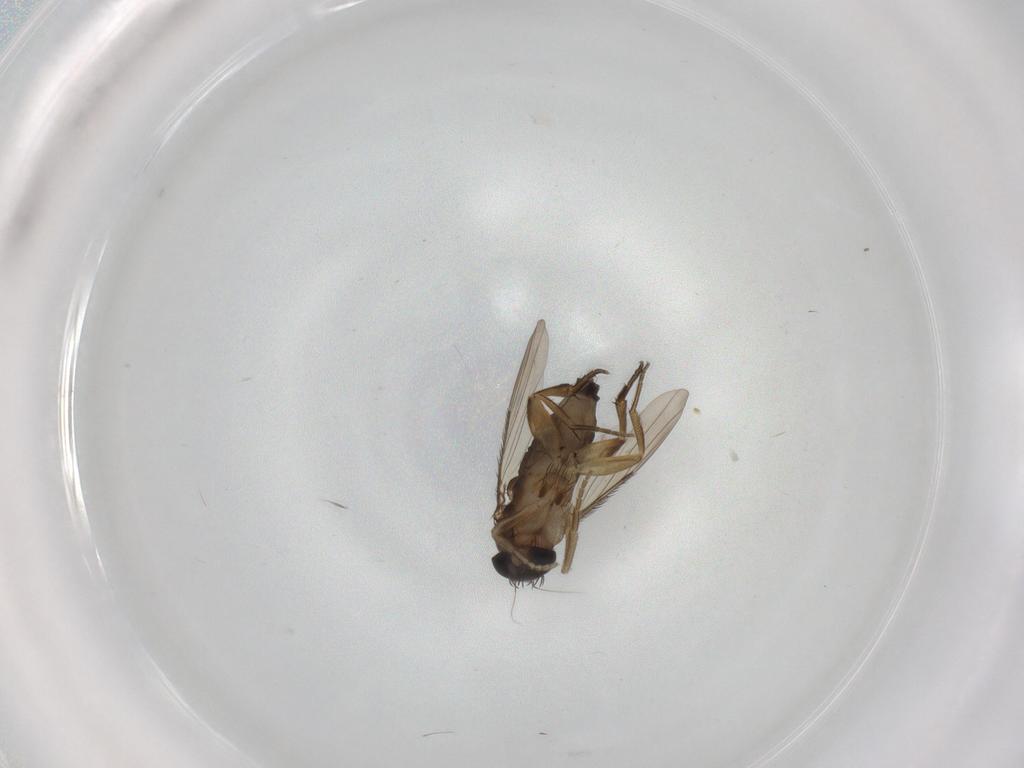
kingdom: Animalia
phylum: Arthropoda
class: Insecta
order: Diptera
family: Phoridae
